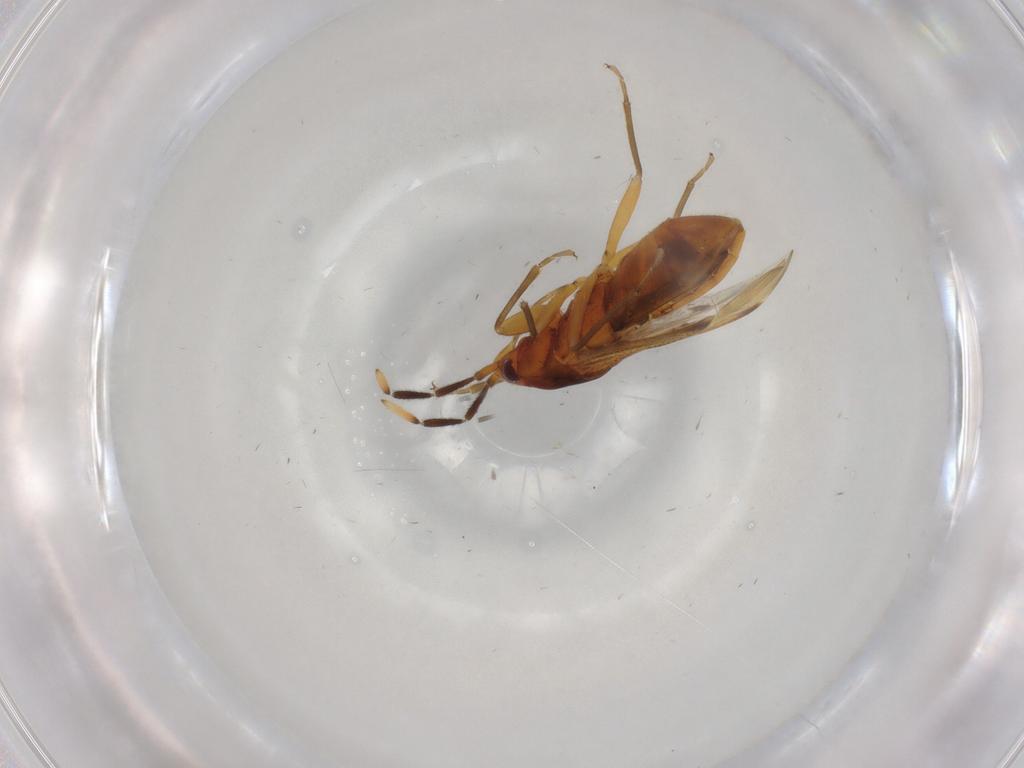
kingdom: Animalia
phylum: Arthropoda
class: Insecta
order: Hemiptera
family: Rhyparochromidae
